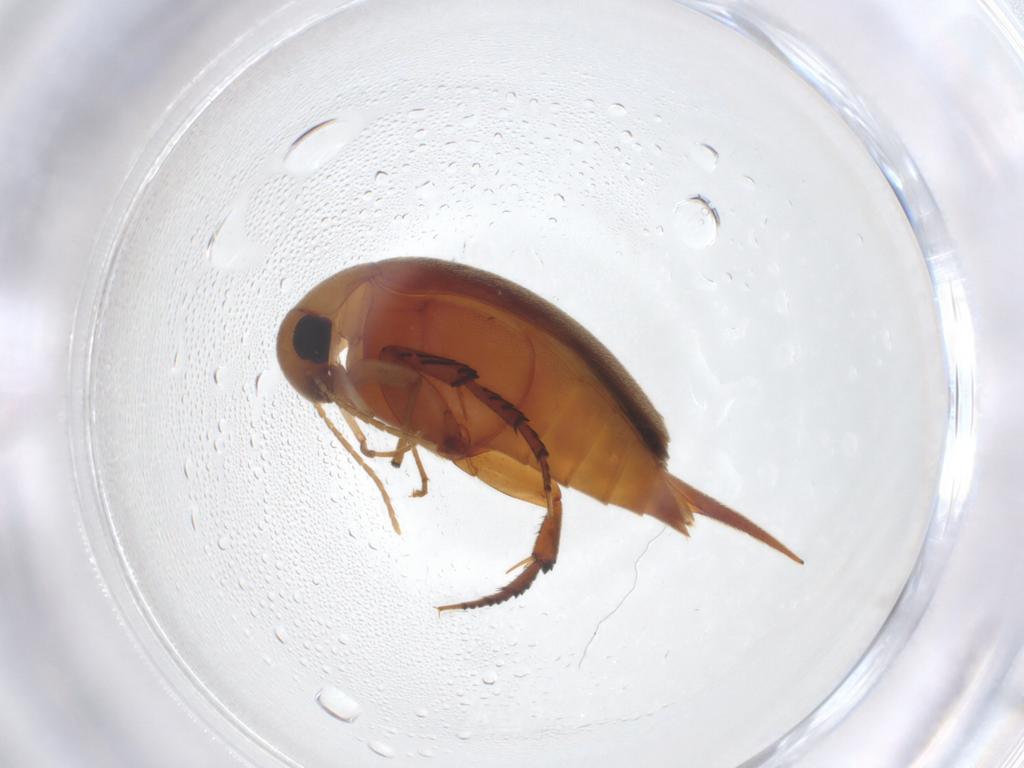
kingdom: Animalia
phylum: Arthropoda
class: Insecta
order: Coleoptera
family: Mordellidae
